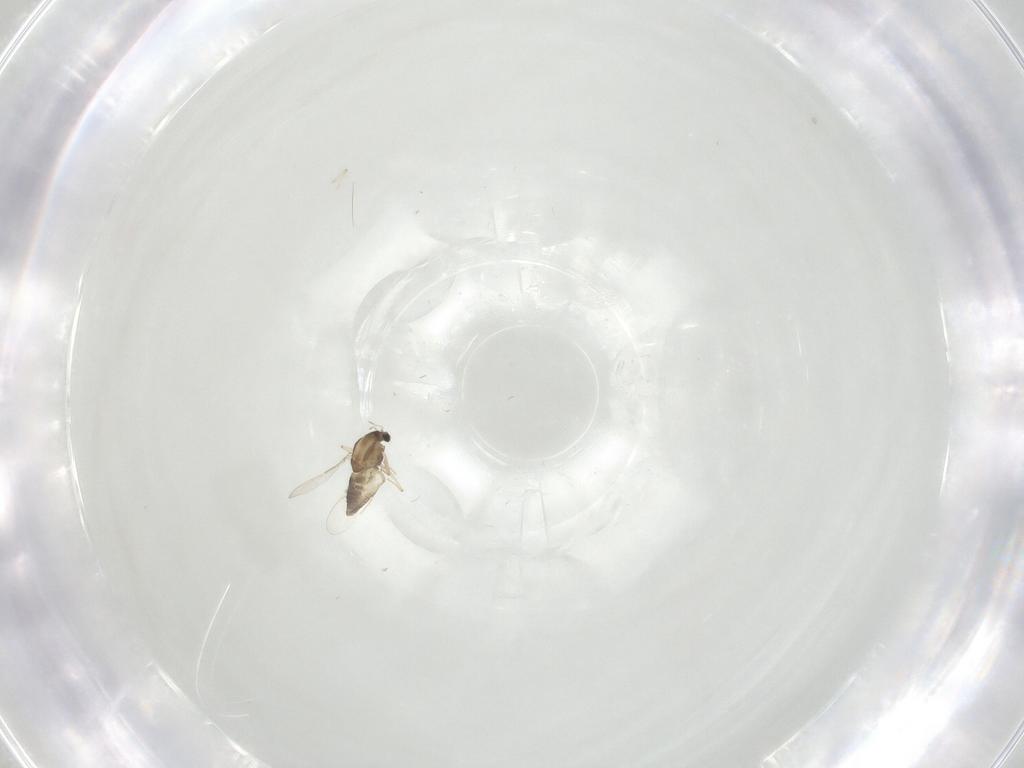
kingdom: Animalia
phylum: Arthropoda
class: Insecta
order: Diptera
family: Chironomidae
